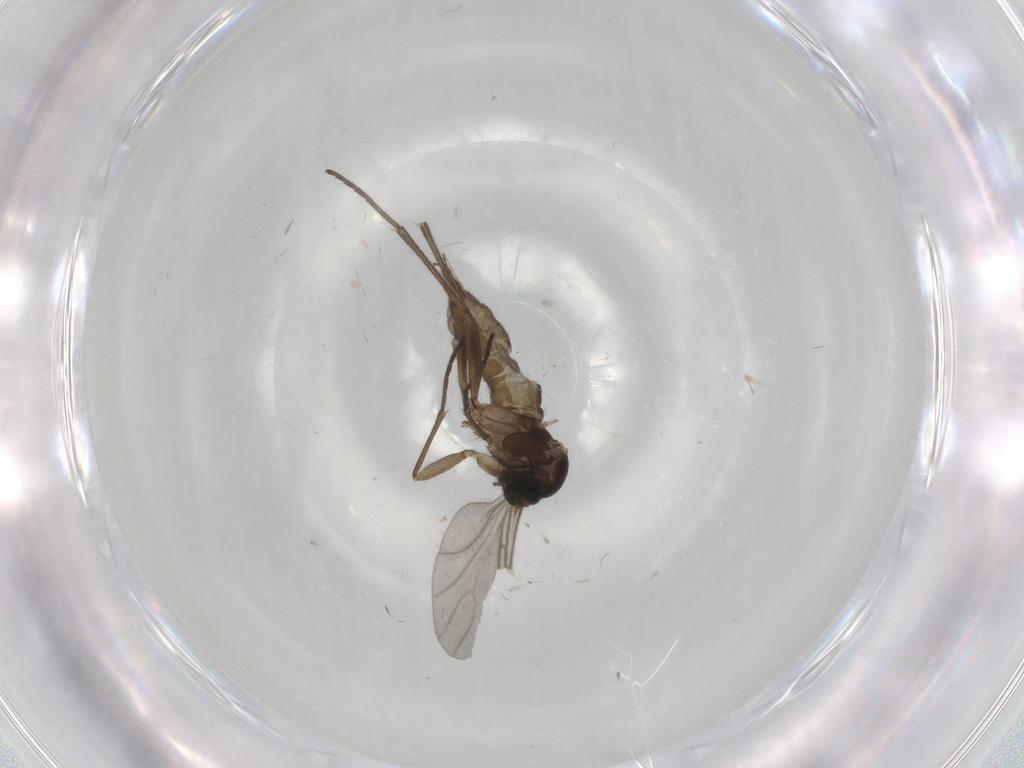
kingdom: Animalia
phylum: Arthropoda
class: Insecta
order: Diptera
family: Sciaridae
